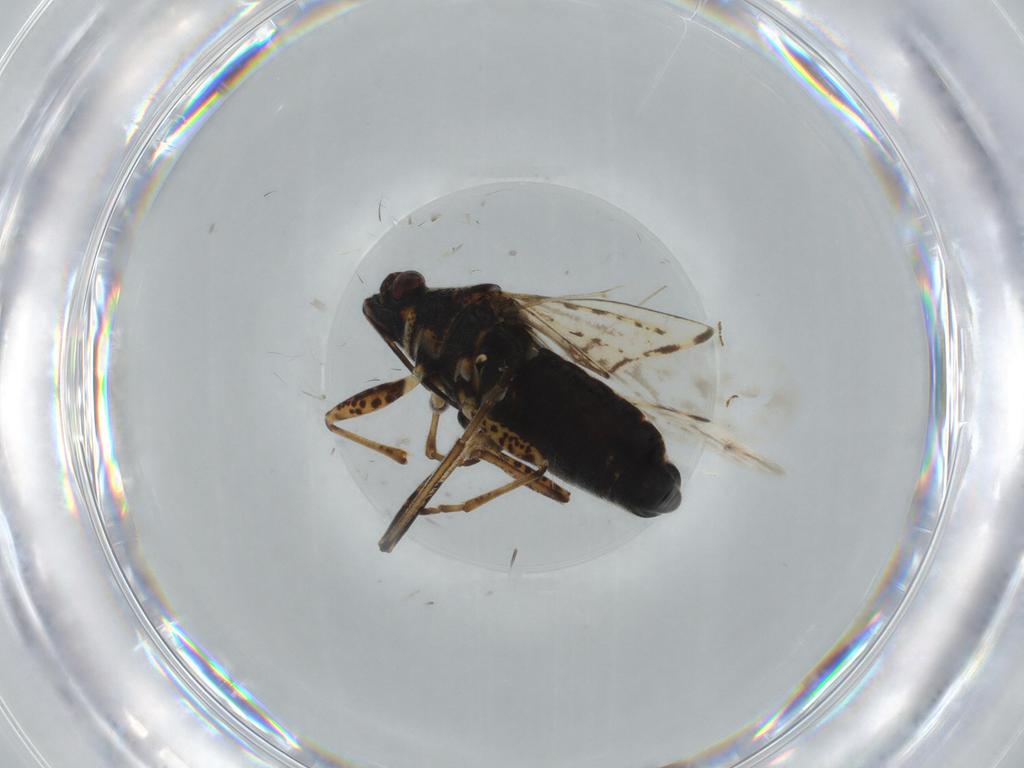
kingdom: Animalia
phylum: Arthropoda
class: Insecta
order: Hemiptera
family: Lygaeidae
